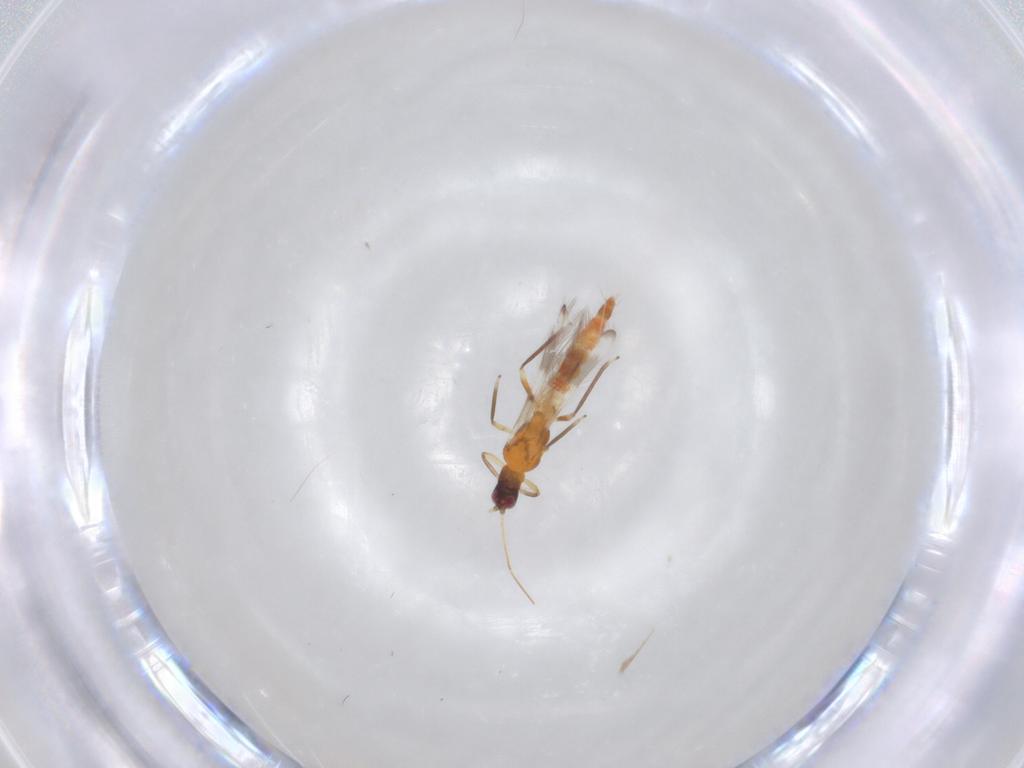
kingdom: Animalia
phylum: Arthropoda
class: Insecta
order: Thysanoptera
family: Aeolothripidae
